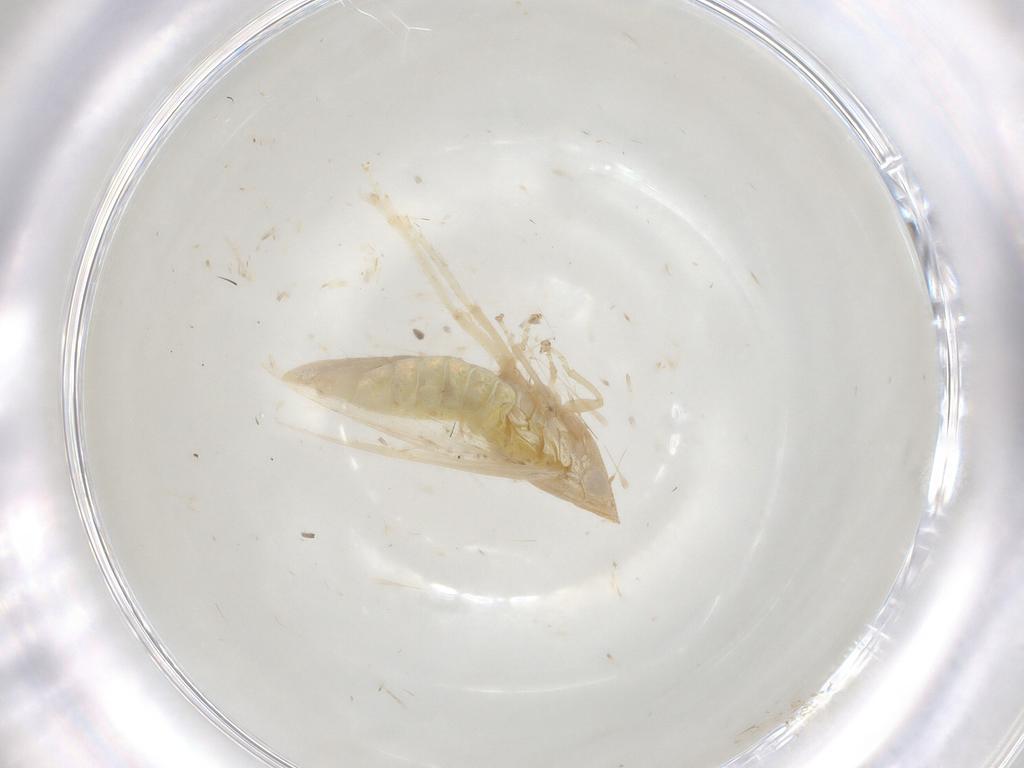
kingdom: Animalia
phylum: Arthropoda
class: Insecta
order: Hemiptera
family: Cicadellidae
